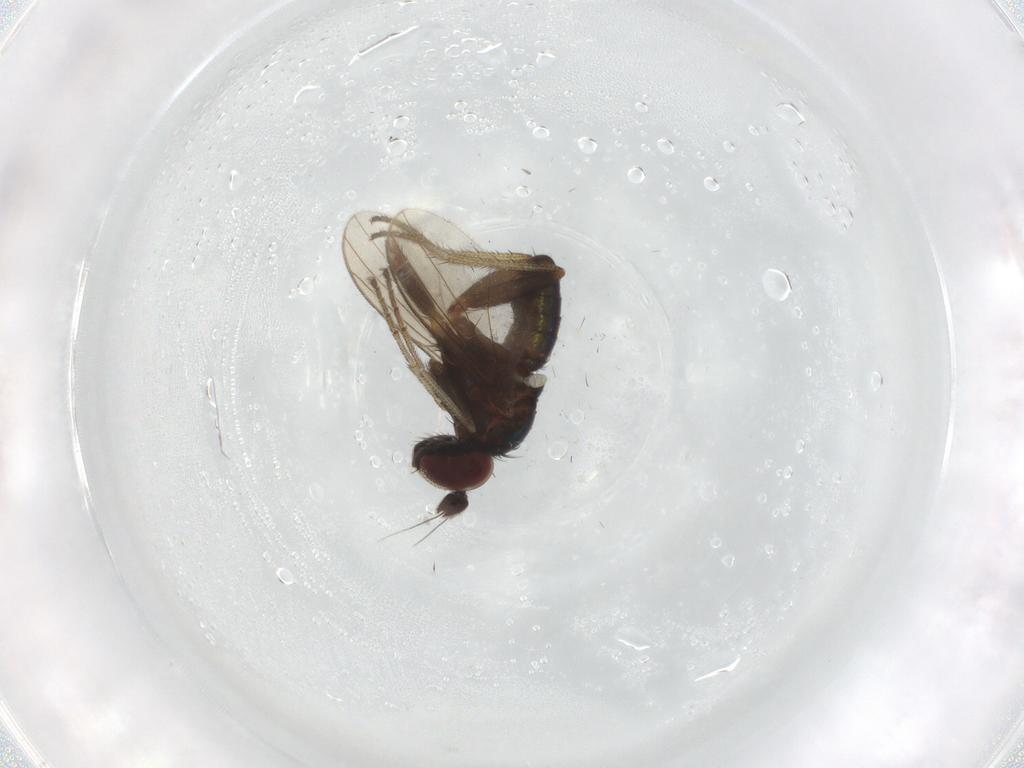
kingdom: Animalia
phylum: Arthropoda
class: Insecta
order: Diptera
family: Dolichopodidae
